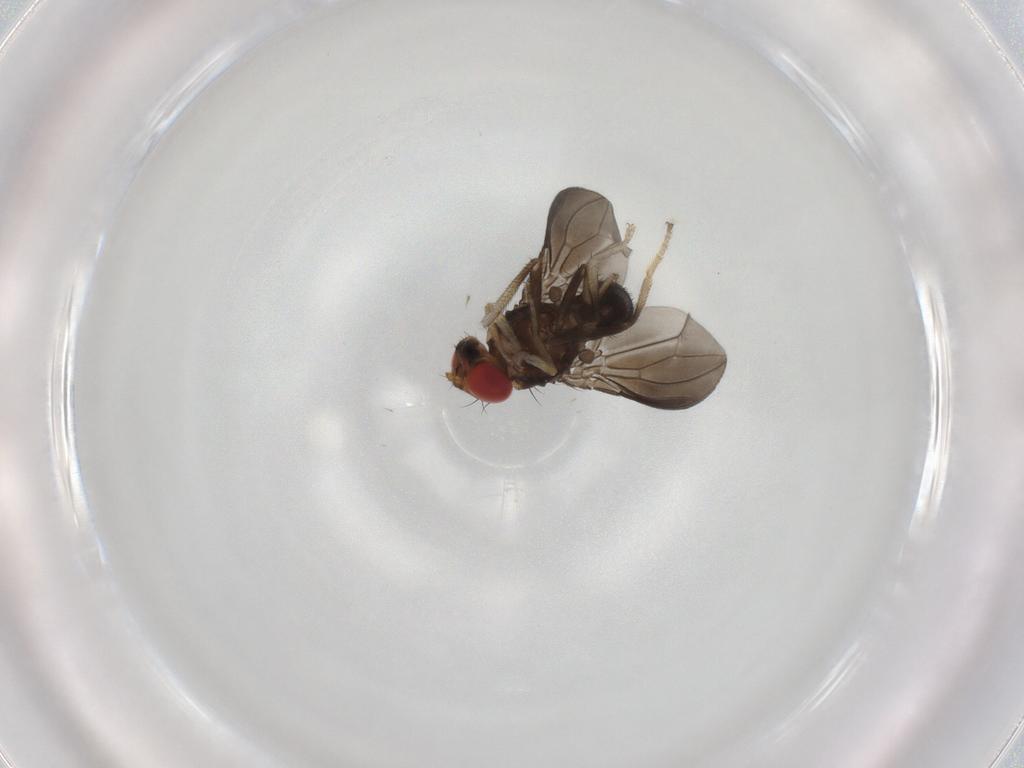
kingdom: Animalia
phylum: Arthropoda
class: Insecta
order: Diptera
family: Drosophilidae
